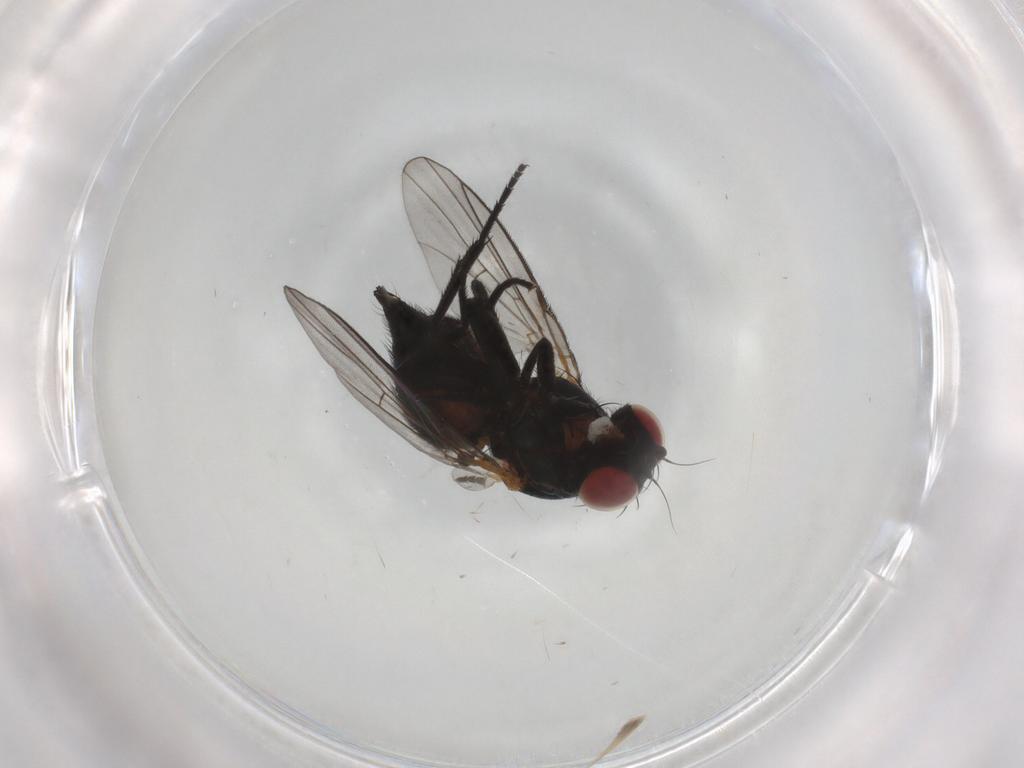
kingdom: Animalia
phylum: Arthropoda
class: Insecta
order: Diptera
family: Agromyzidae
